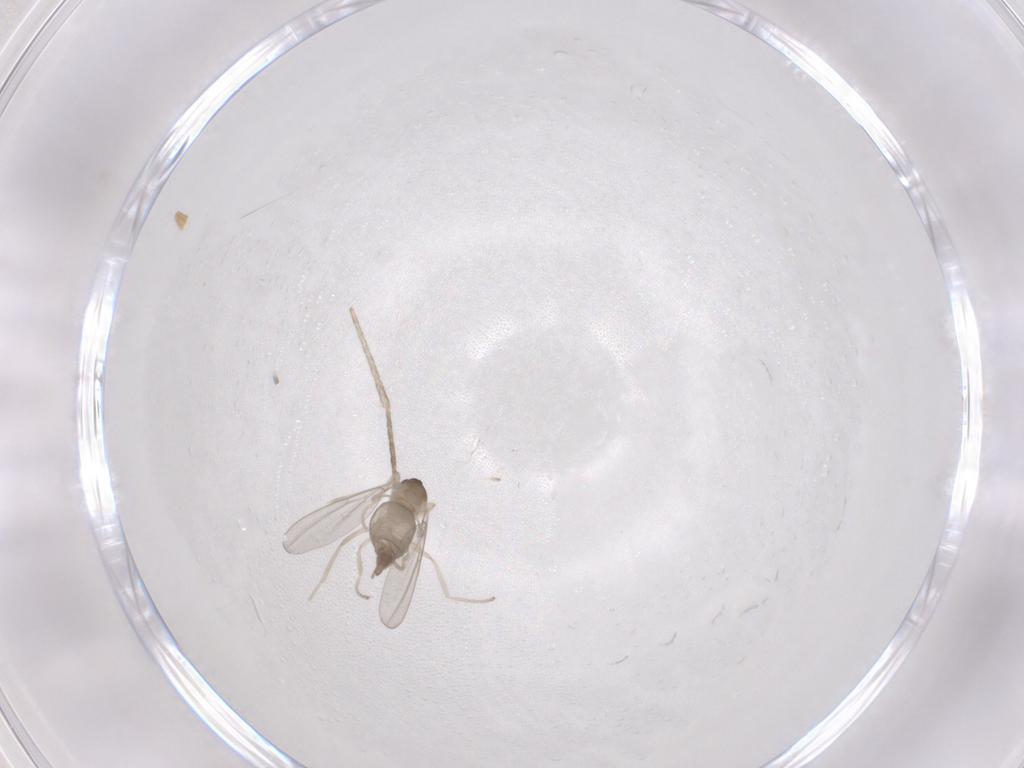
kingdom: Animalia
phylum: Arthropoda
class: Insecta
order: Diptera
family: Cecidomyiidae
